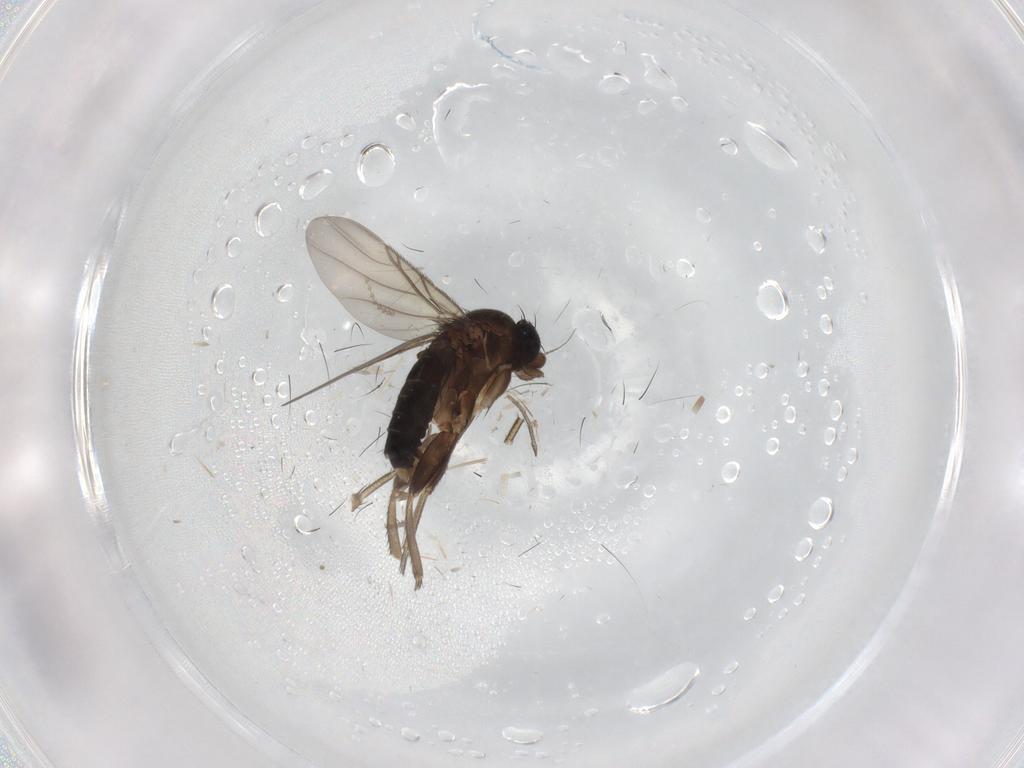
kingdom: Animalia
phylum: Arthropoda
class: Insecta
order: Diptera
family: Phoridae
